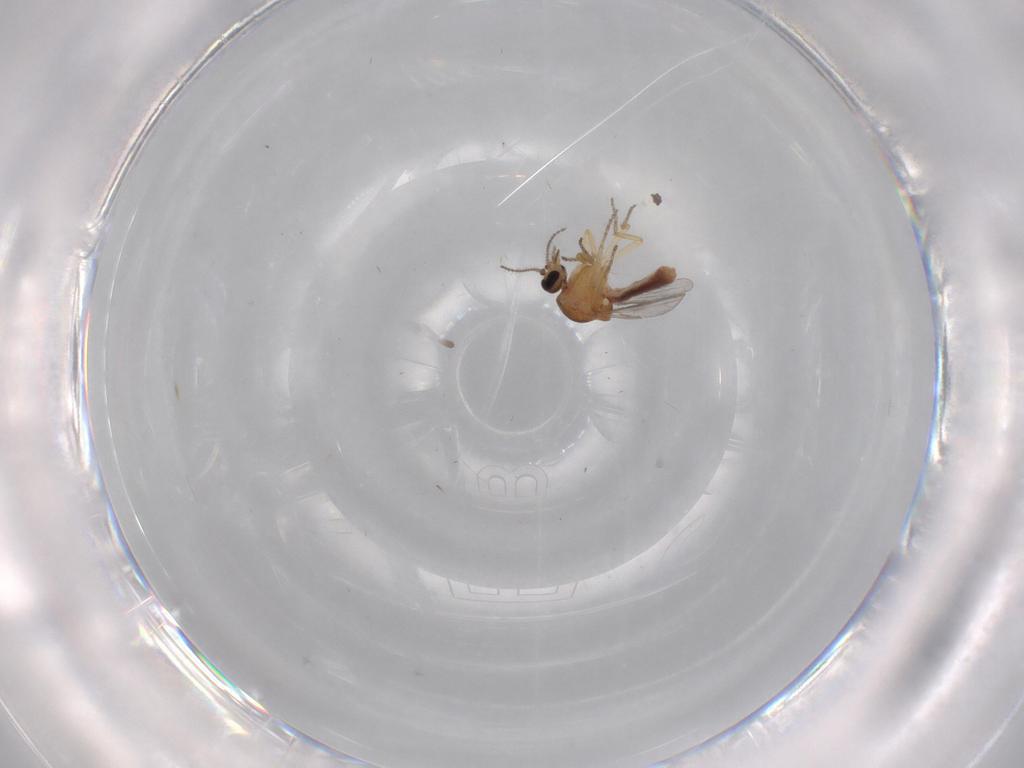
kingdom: Animalia
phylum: Arthropoda
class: Insecta
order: Diptera
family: Ceratopogonidae
